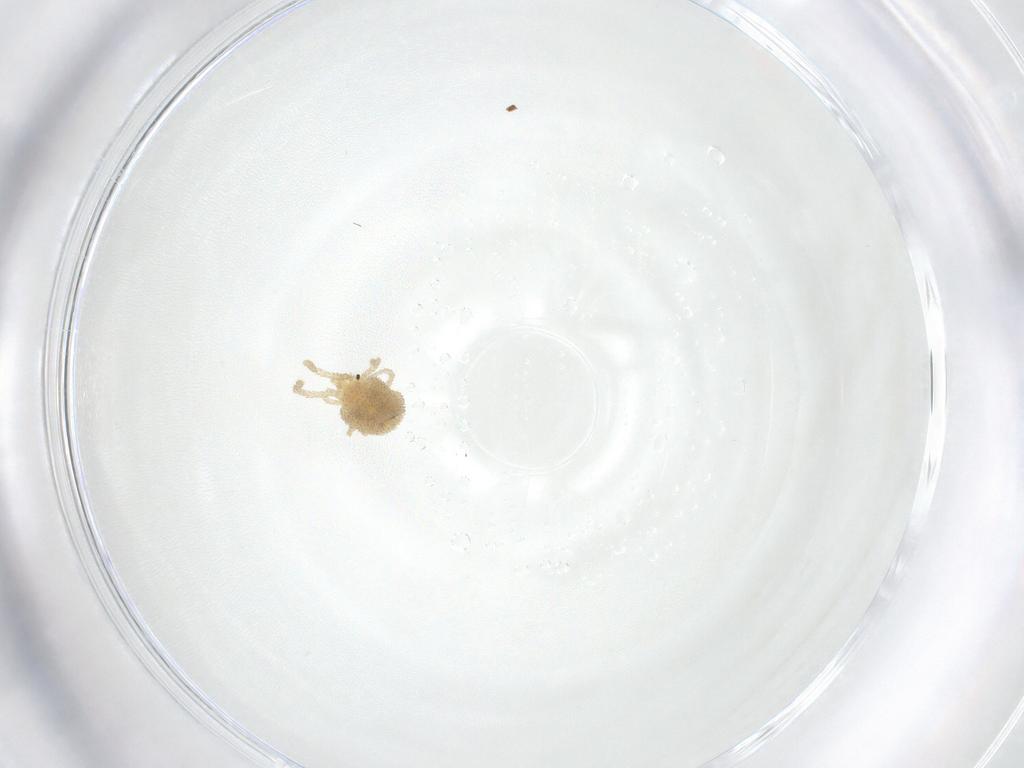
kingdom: Animalia
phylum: Arthropoda
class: Arachnida
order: Trombidiformes
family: Erythraeidae
